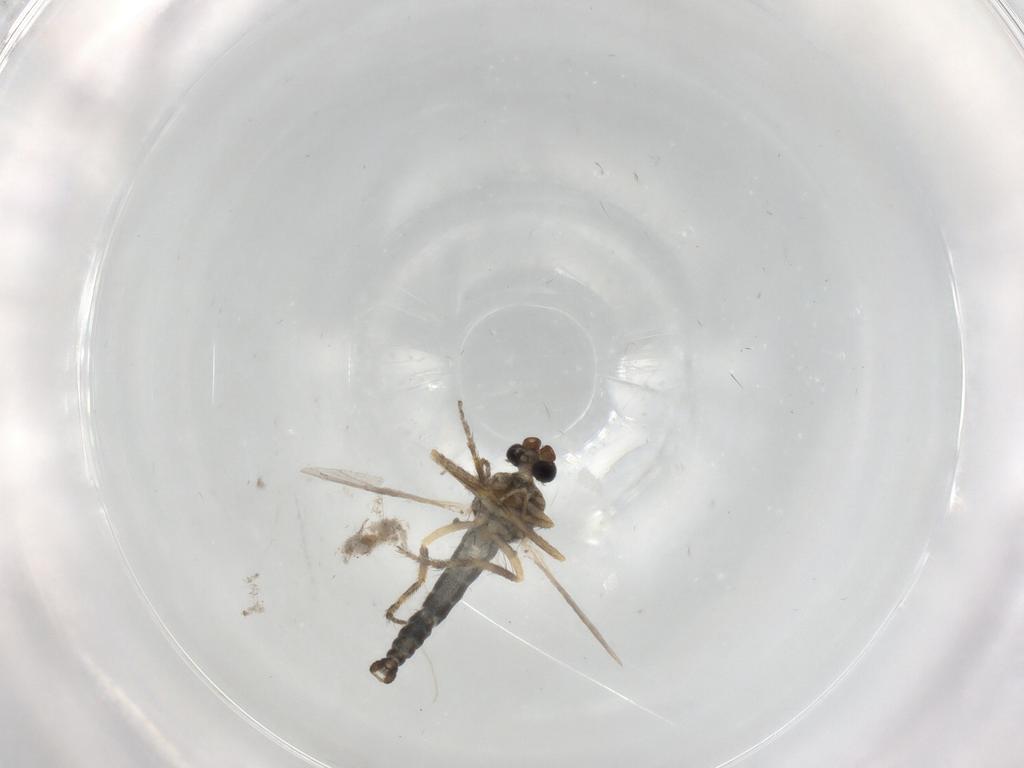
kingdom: Animalia
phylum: Arthropoda
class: Insecta
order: Diptera
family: Ceratopogonidae
